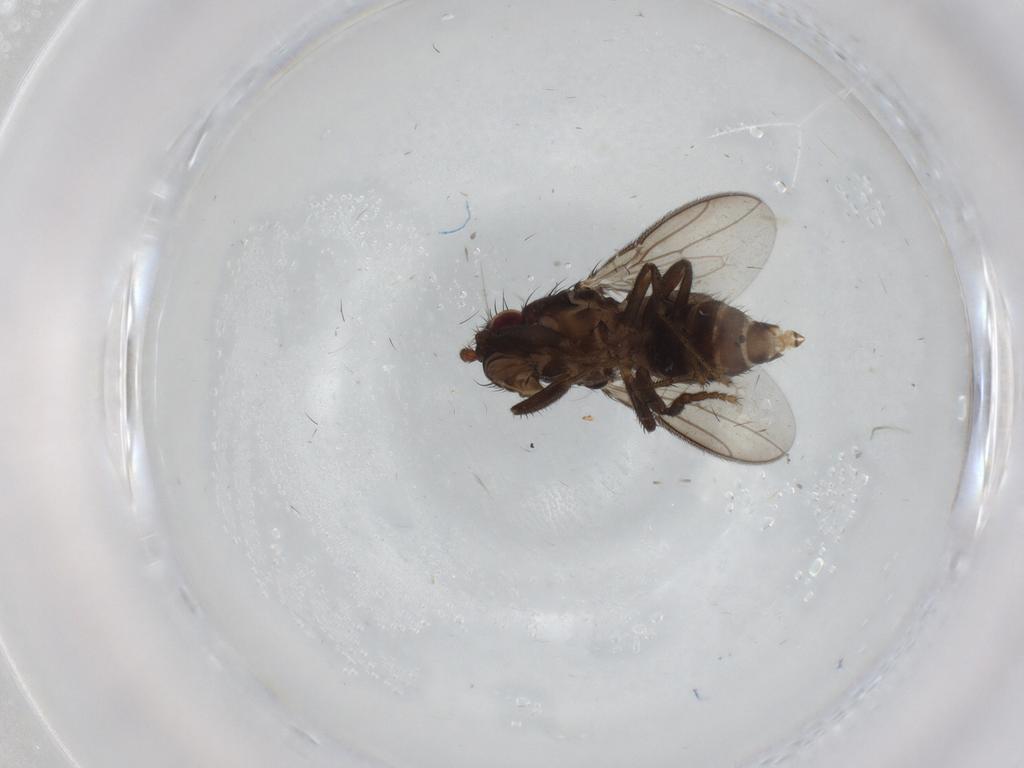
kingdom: Animalia
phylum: Arthropoda
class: Insecta
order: Diptera
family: Sphaeroceridae
